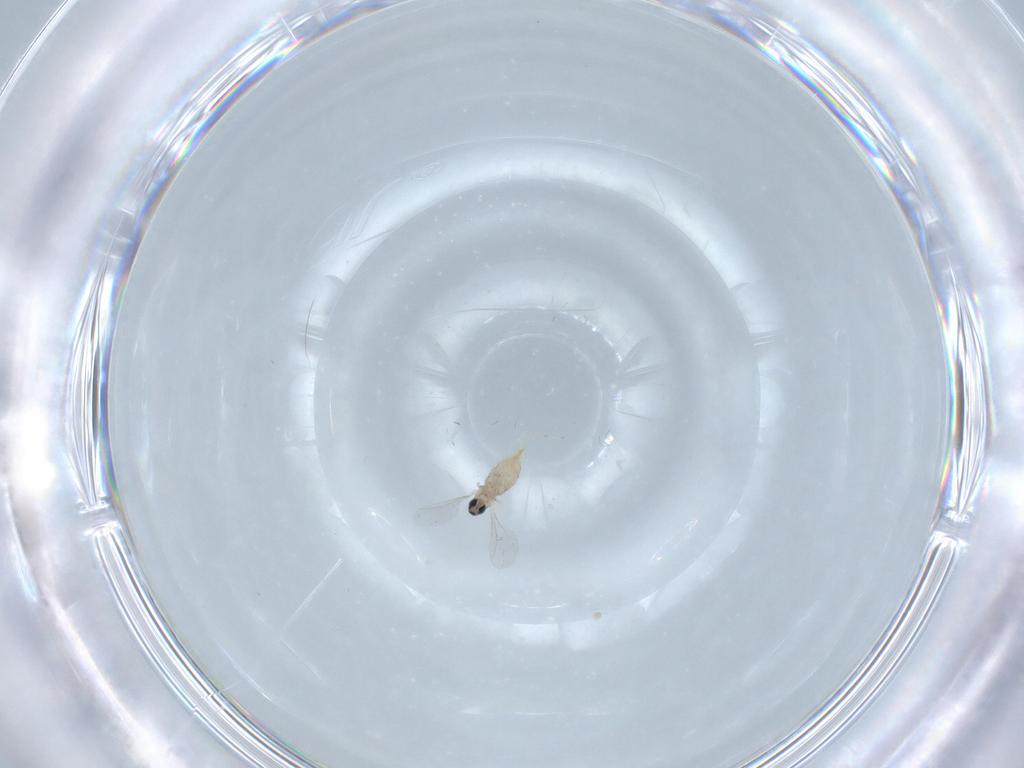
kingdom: Animalia
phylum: Arthropoda
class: Insecta
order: Diptera
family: Cecidomyiidae
